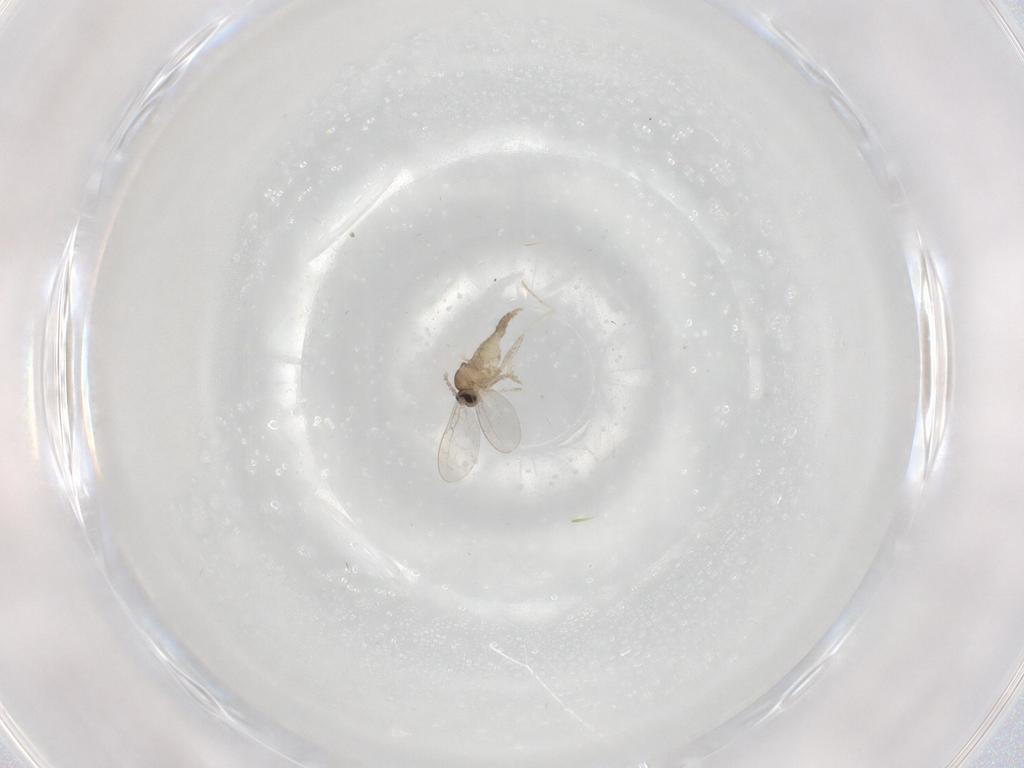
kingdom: Animalia
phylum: Arthropoda
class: Insecta
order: Diptera
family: Cecidomyiidae
